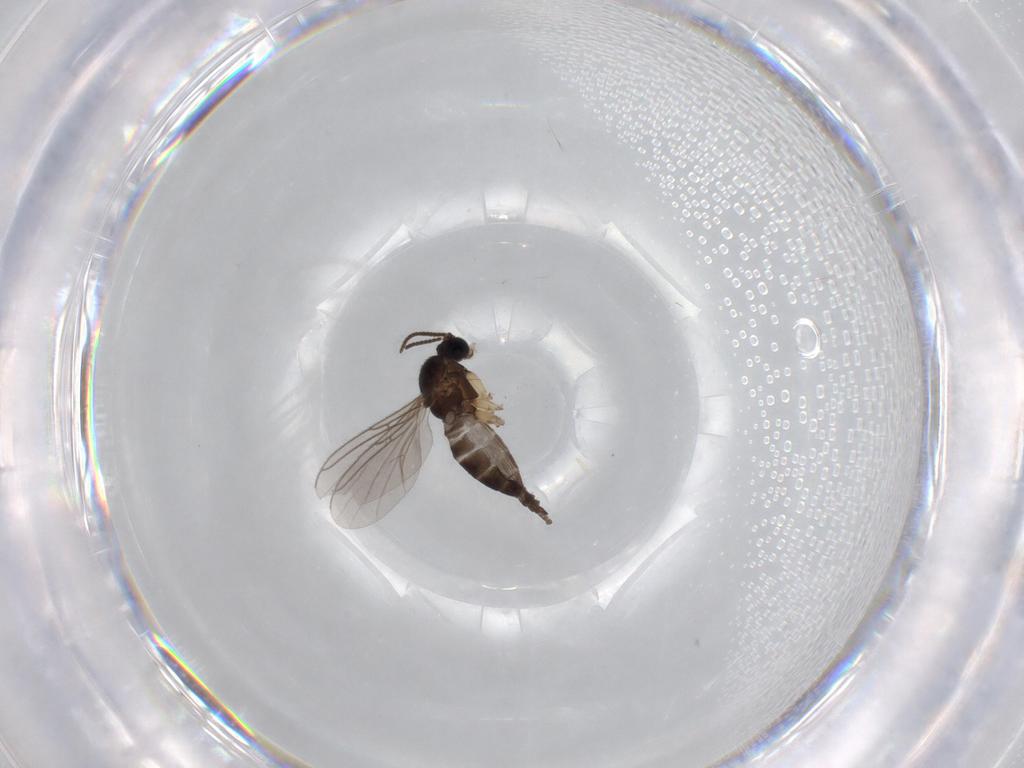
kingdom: Animalia
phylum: Arthropoda
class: Insecta
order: Diptera
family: Sciaridae
